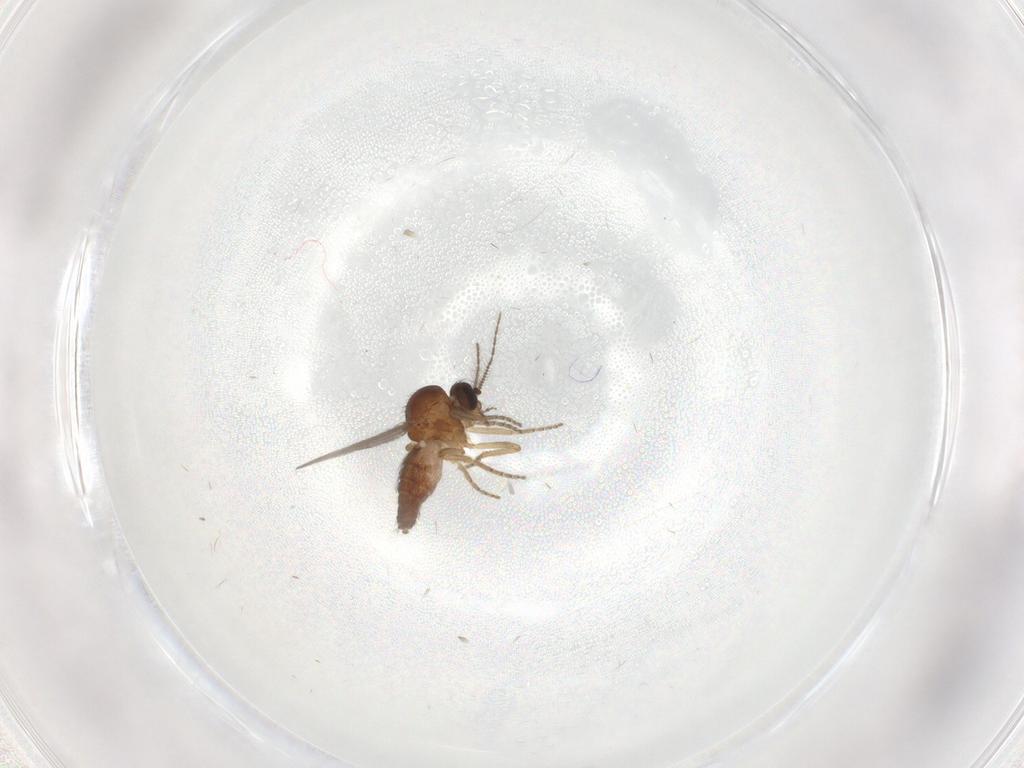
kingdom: Animalia
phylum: Arthropoda
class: Insecta
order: Diptera
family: Ceratopogonidae
